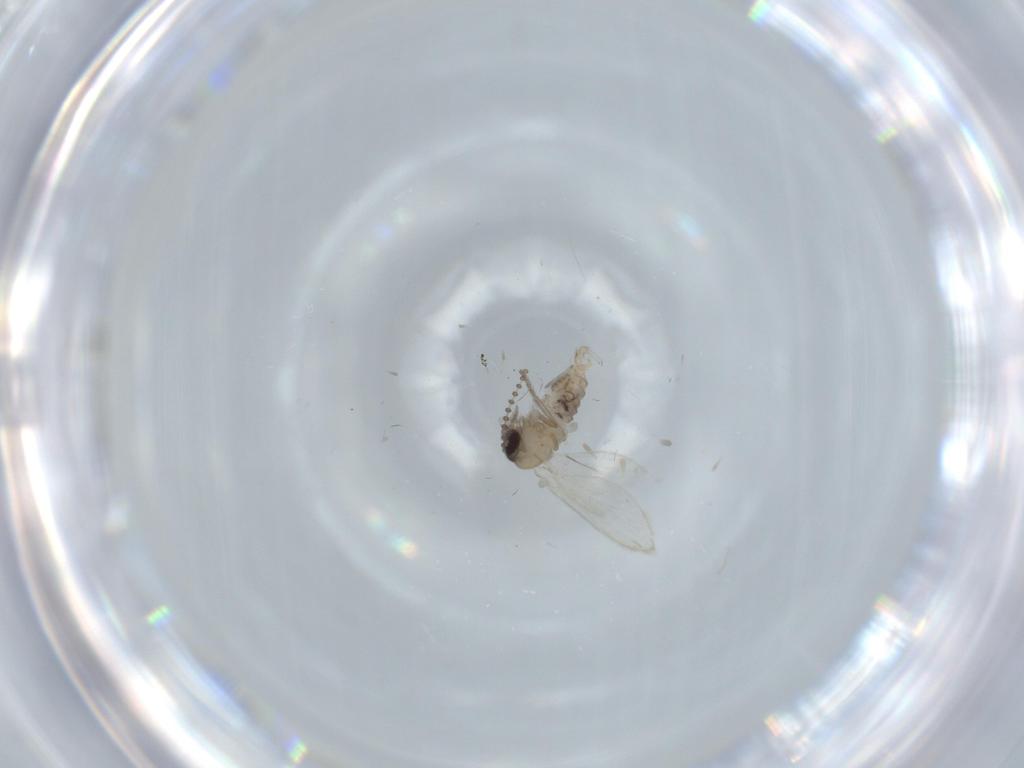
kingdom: Animalia
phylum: Arthropoda
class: Insecta
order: Diptera
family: Psychodidae
